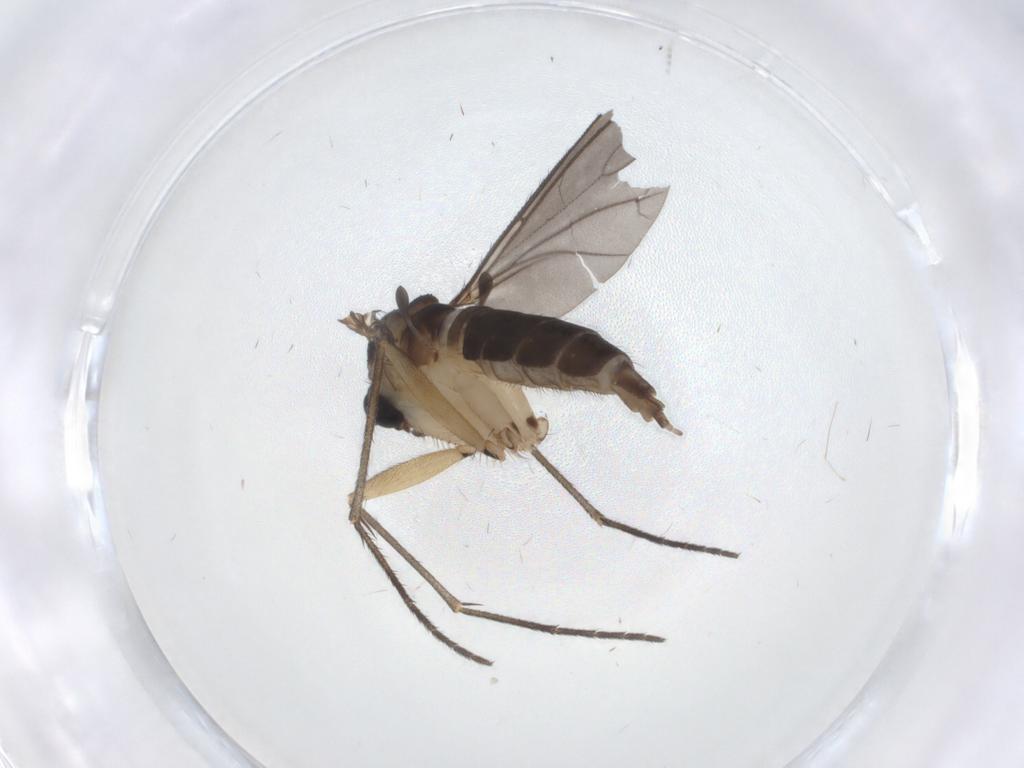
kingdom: Animalia
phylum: Arthropoda
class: Insecta
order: Diptera
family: Sciaridae
